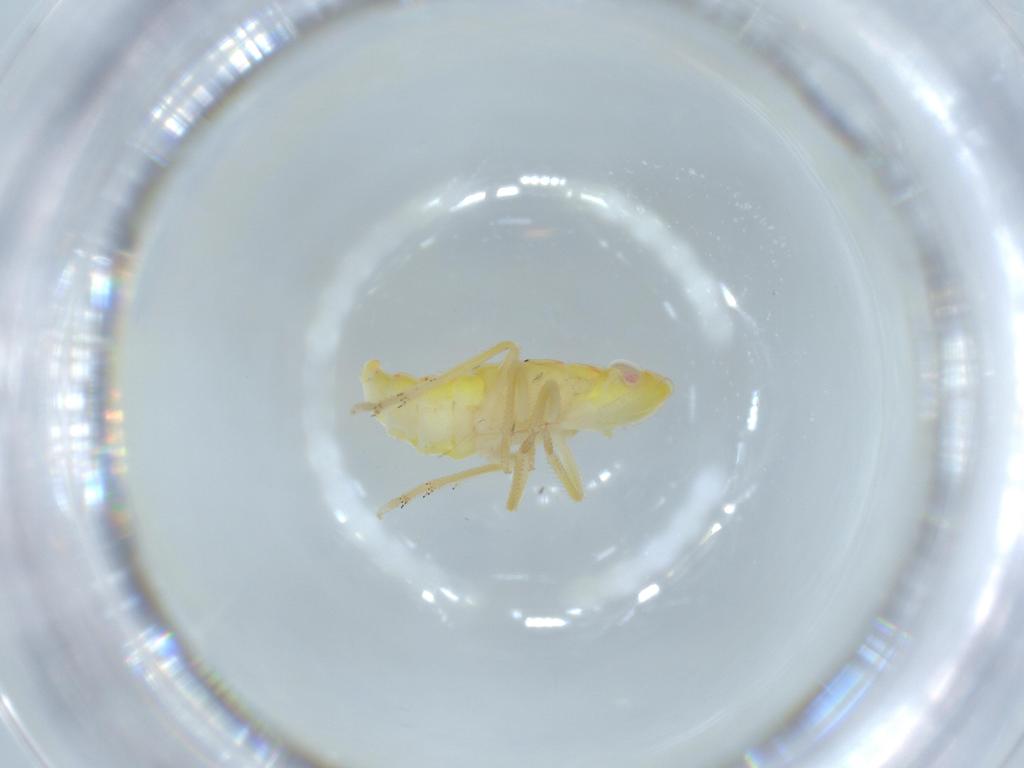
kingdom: Animalia
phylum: Arthropoda
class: Insecta
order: Hemiptera
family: Tropiduchidae
